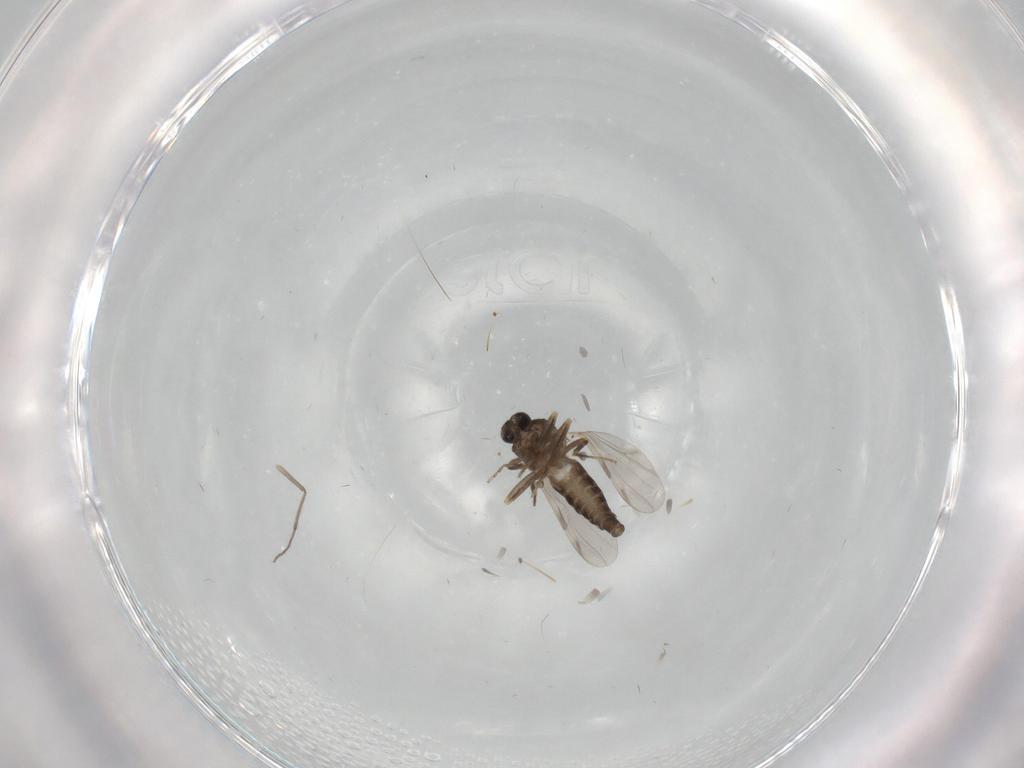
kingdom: Animalia
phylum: Arthropoda
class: Insecta
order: Diptera
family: Ceratopogonidae
